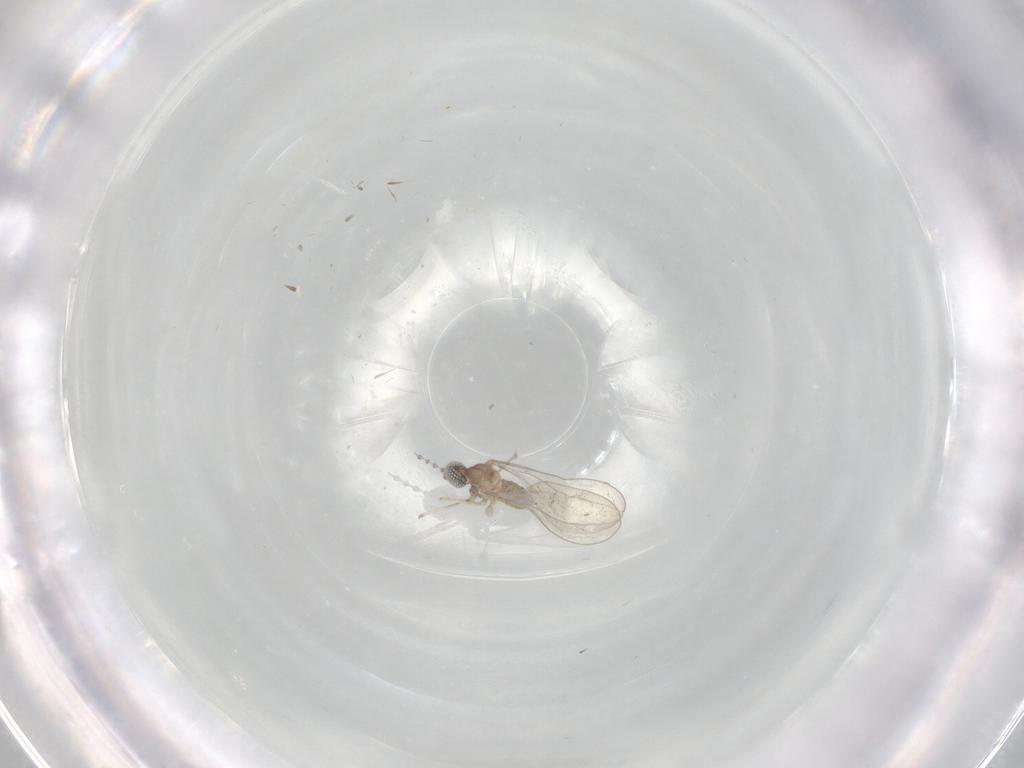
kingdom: Animalia
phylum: Arthropoda
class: Insecta
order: Diptera
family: Cecidomyiidae
